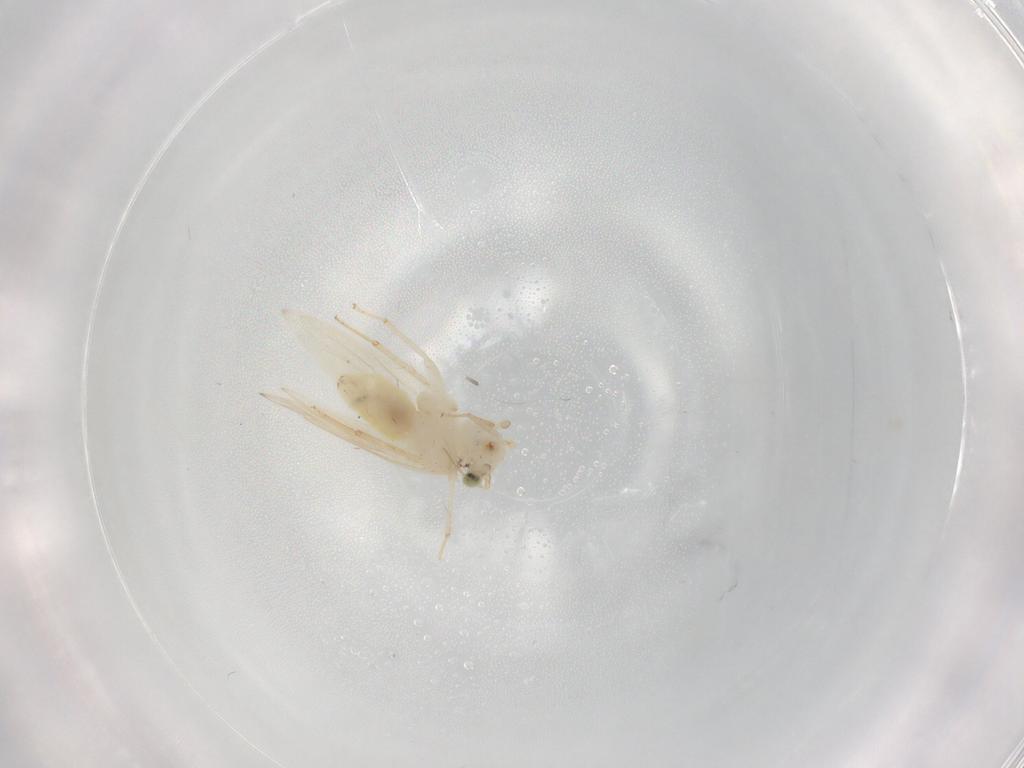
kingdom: Animalia
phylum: Arthropoda
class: Insecta
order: Psocodea
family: Lepidopsocidae
